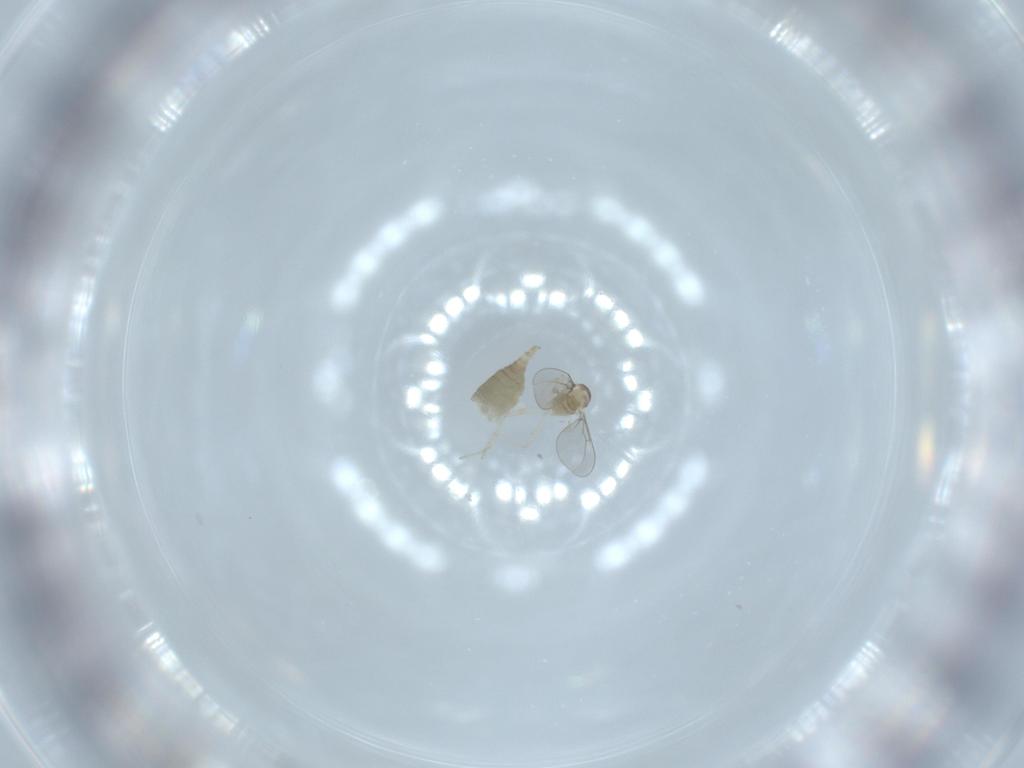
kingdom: Animalia
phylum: Arthropoda
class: Insecta
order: Diptera
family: Cecidomyiidae
